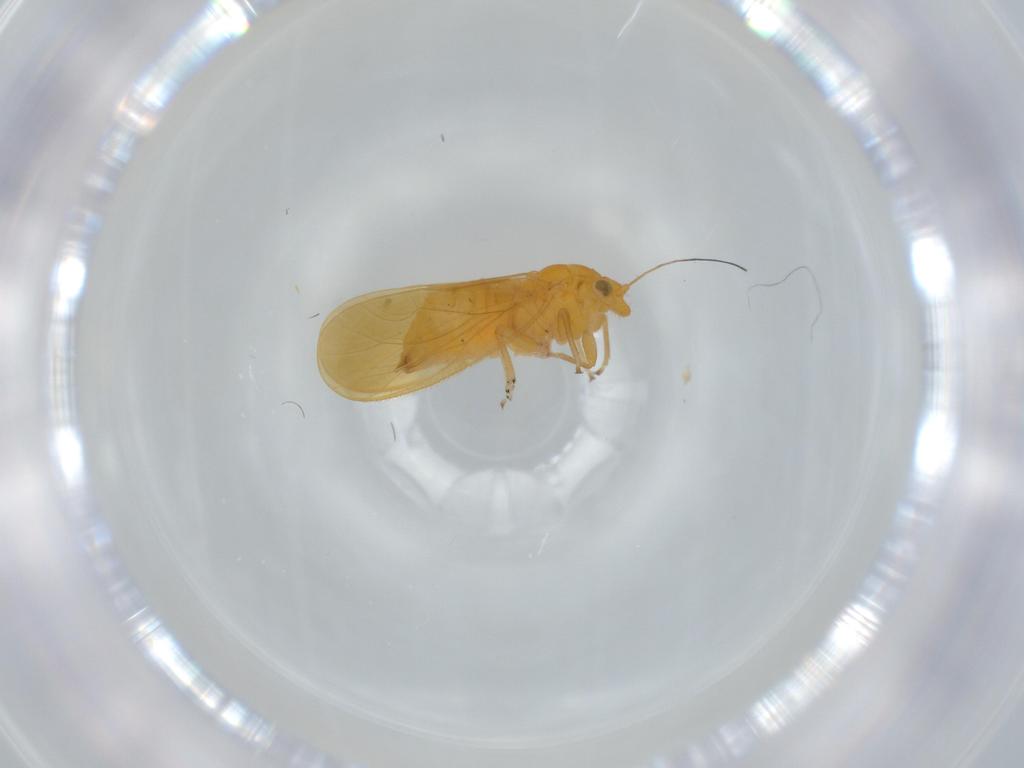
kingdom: Animalia
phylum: Arthropoda
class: Insecta
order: Hemiptera
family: Psyllidae
